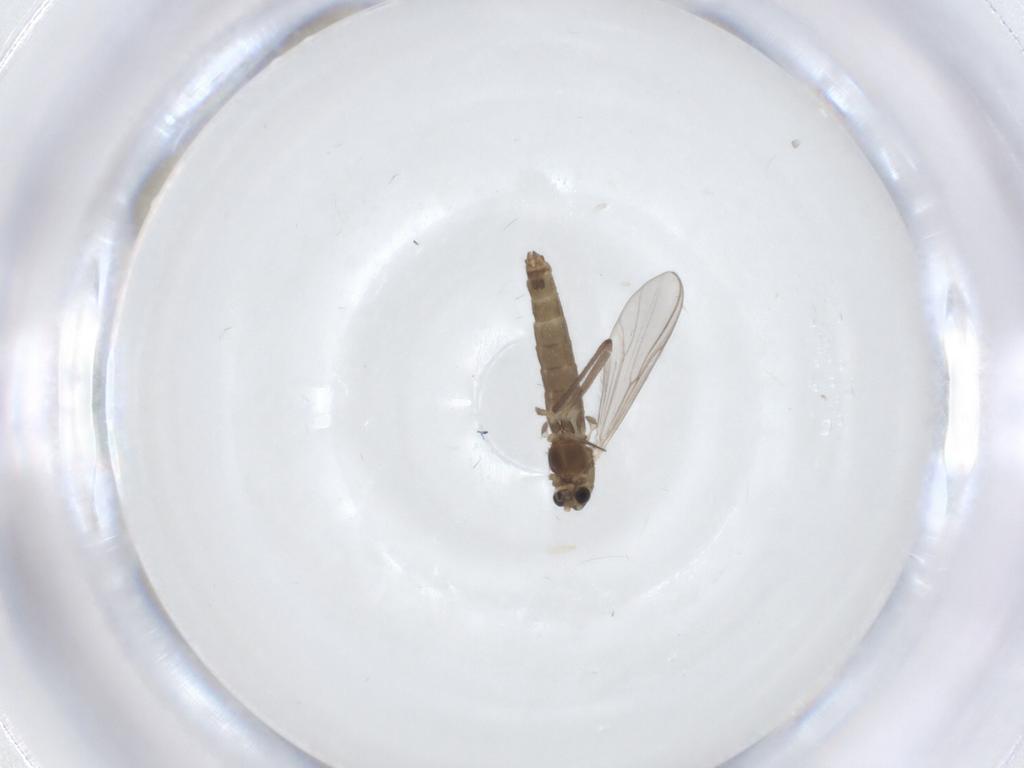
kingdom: Animalia
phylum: Arthropoda
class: Insecta
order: Diptera
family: Chironomidae
